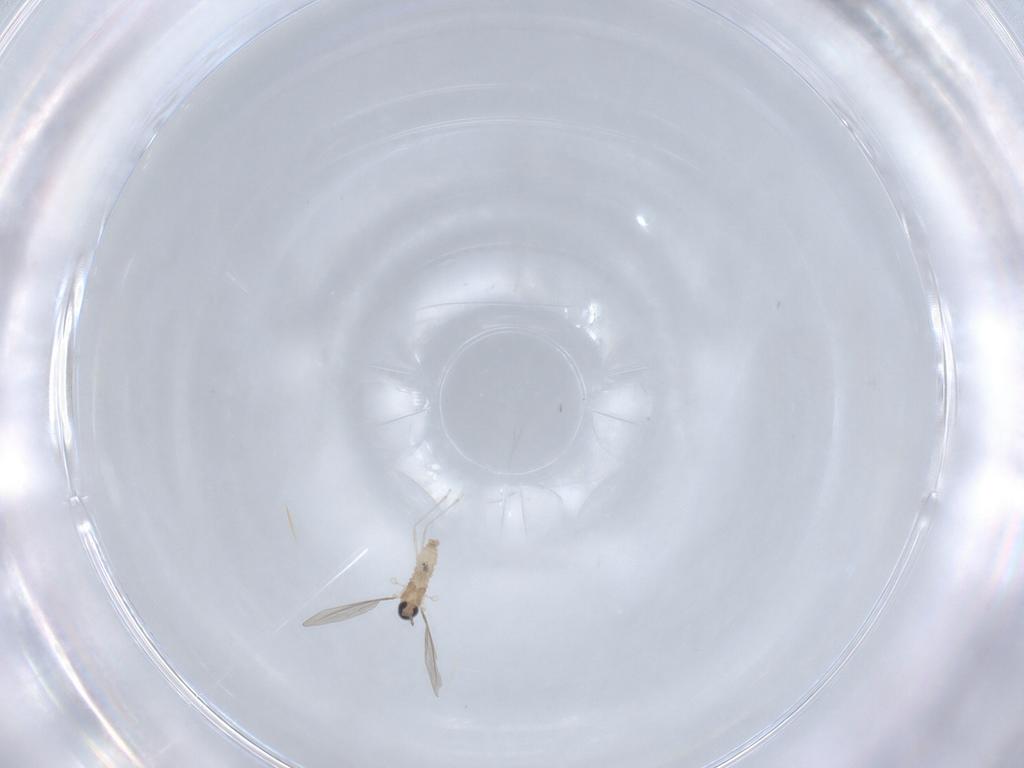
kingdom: Animalia
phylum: Arthropoda
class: Insecta
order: Diptera
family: Cecidomyiidae
